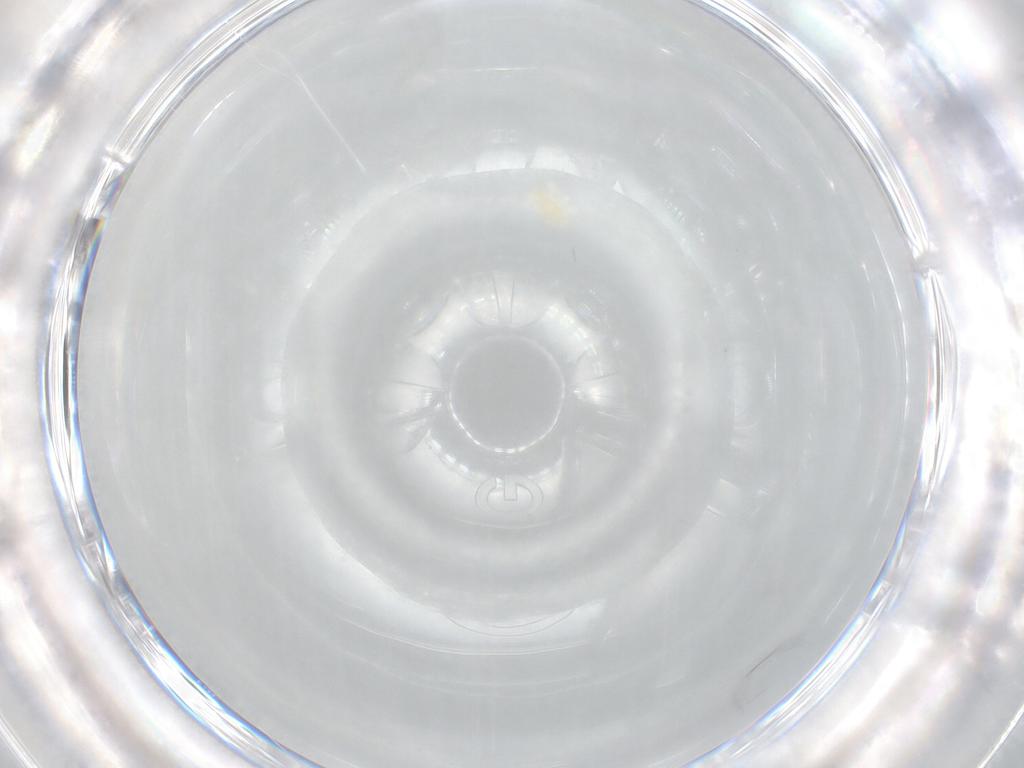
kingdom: Animalia
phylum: Arthropoda
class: Arachnida
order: Trombidiformes
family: Eupodidae
